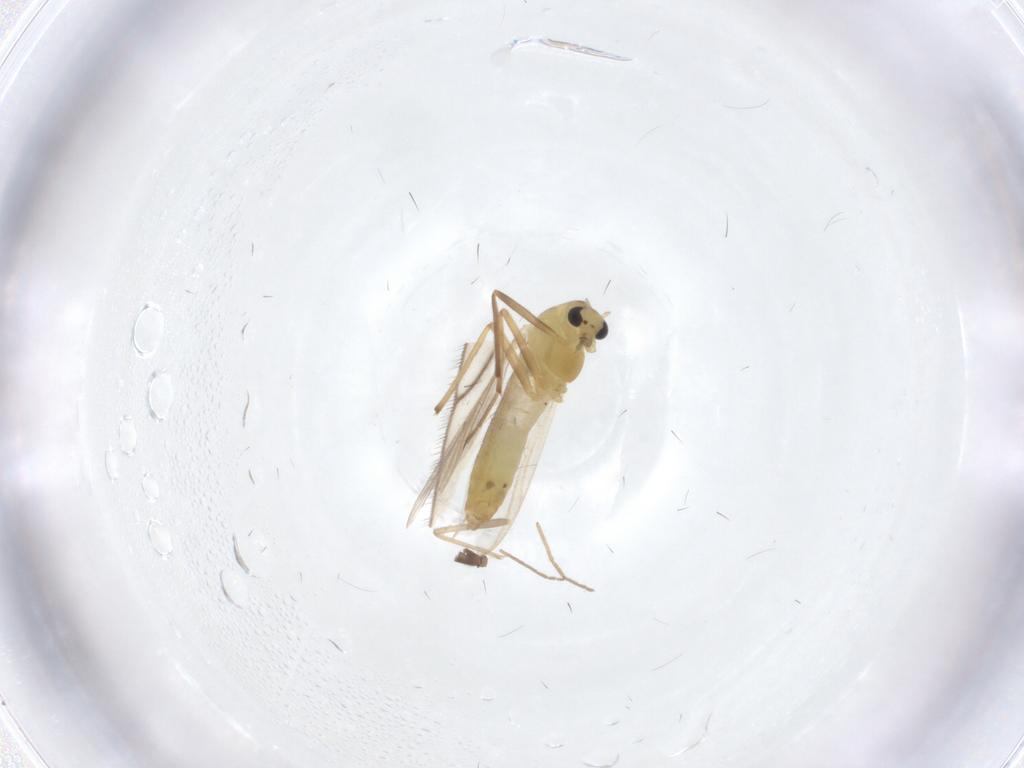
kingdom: Animalia
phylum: Arthropoda
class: Insecta
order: Diptera
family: Chironomidae
